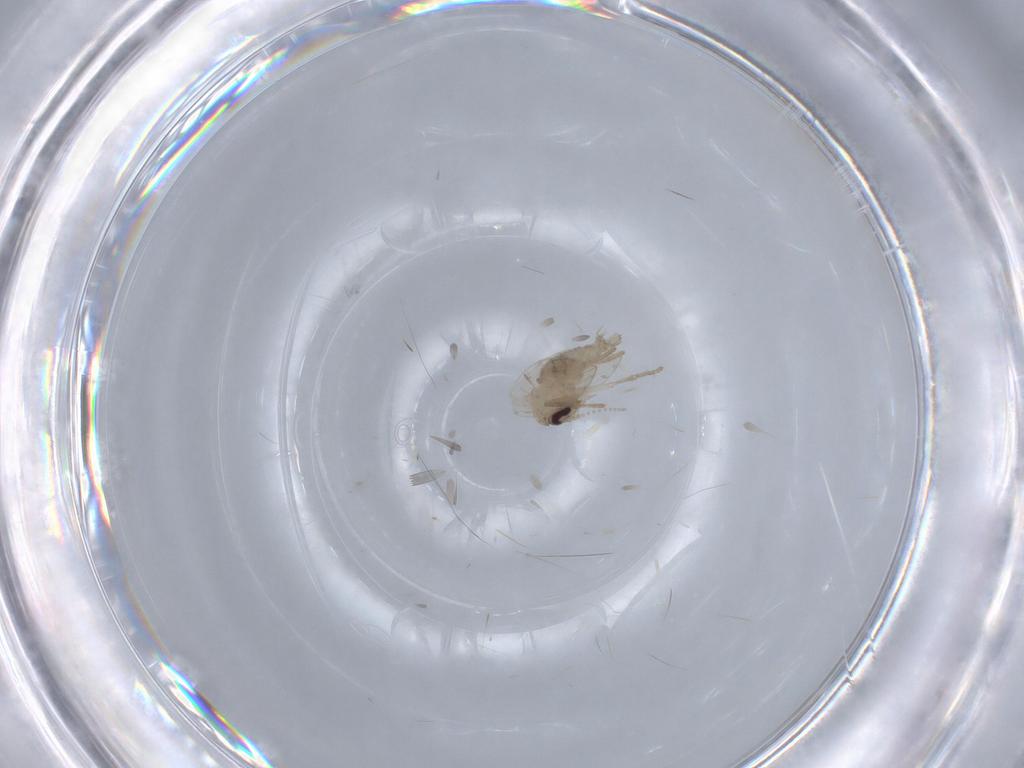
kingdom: Animalia
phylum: Arthropoda
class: Insecta
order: Diptera
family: Psychodidae
